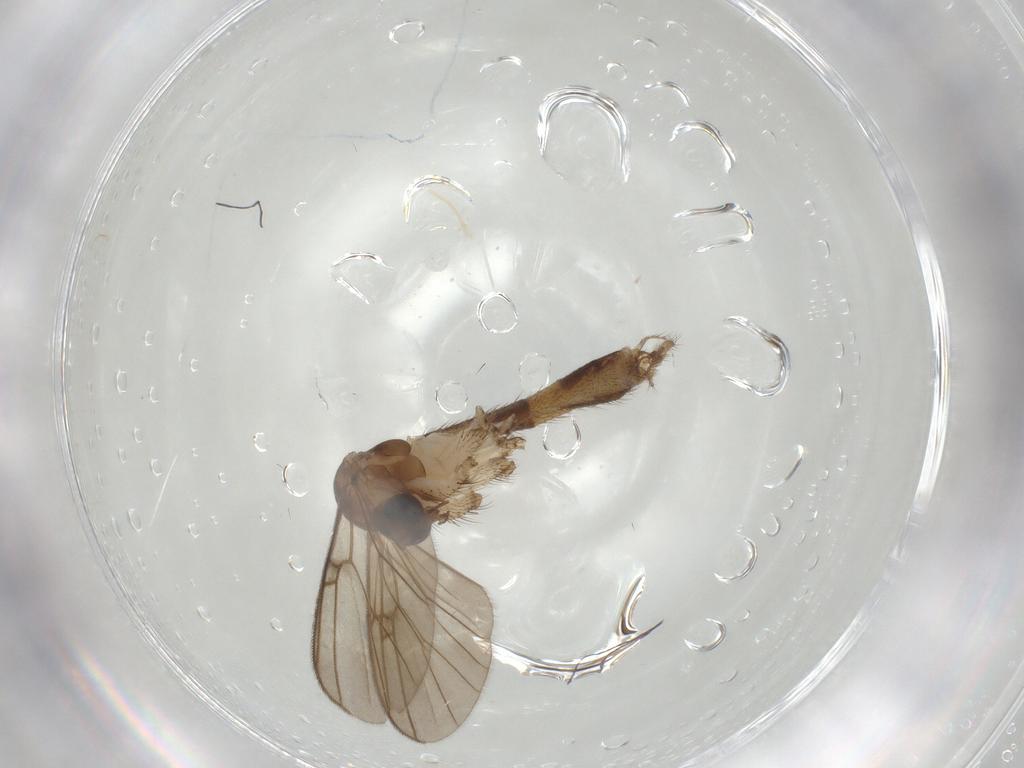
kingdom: Animalia
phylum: Arthropoda
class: Insecta
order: Diptera
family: Mycetophilidae
